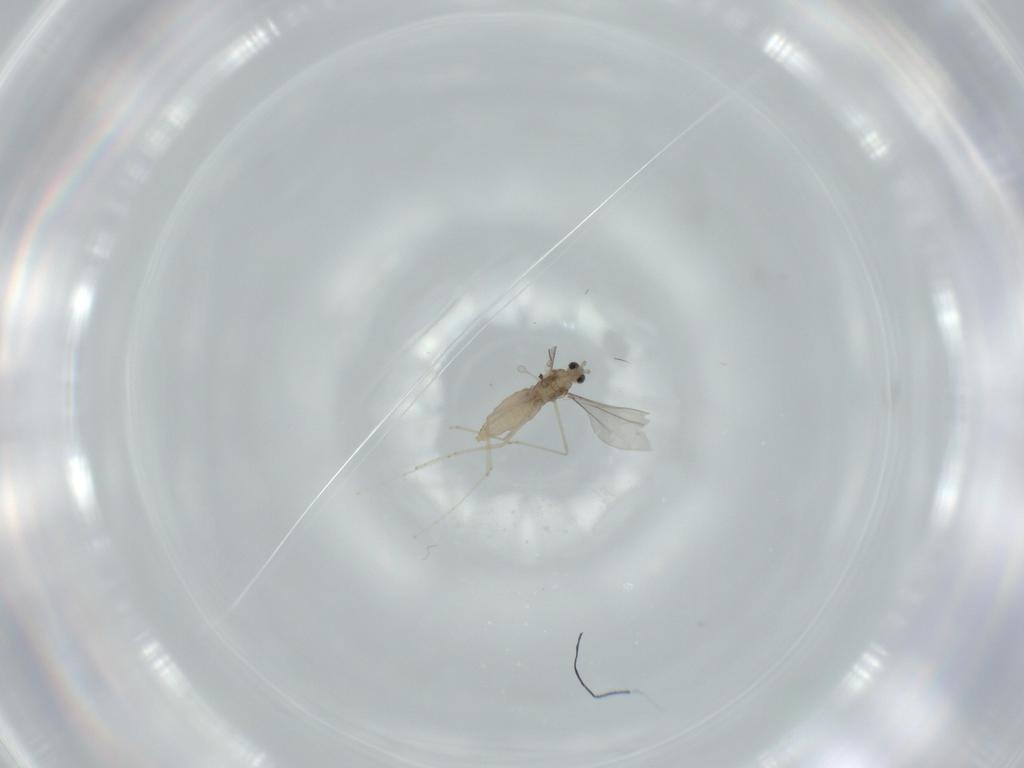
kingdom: Animalia
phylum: Arthropoda
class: Insecta
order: Diptera
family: Cecidomyiidae
